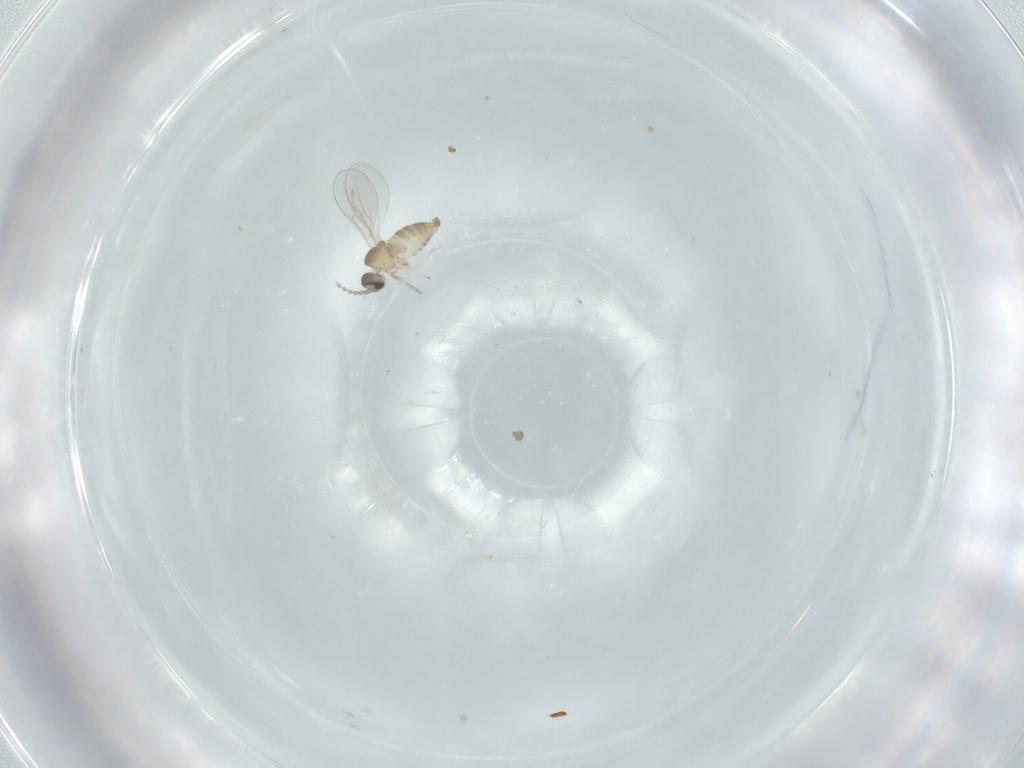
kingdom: Animalia
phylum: Arthropoda
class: Insecta
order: Diptera
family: Cecidomyiidae
